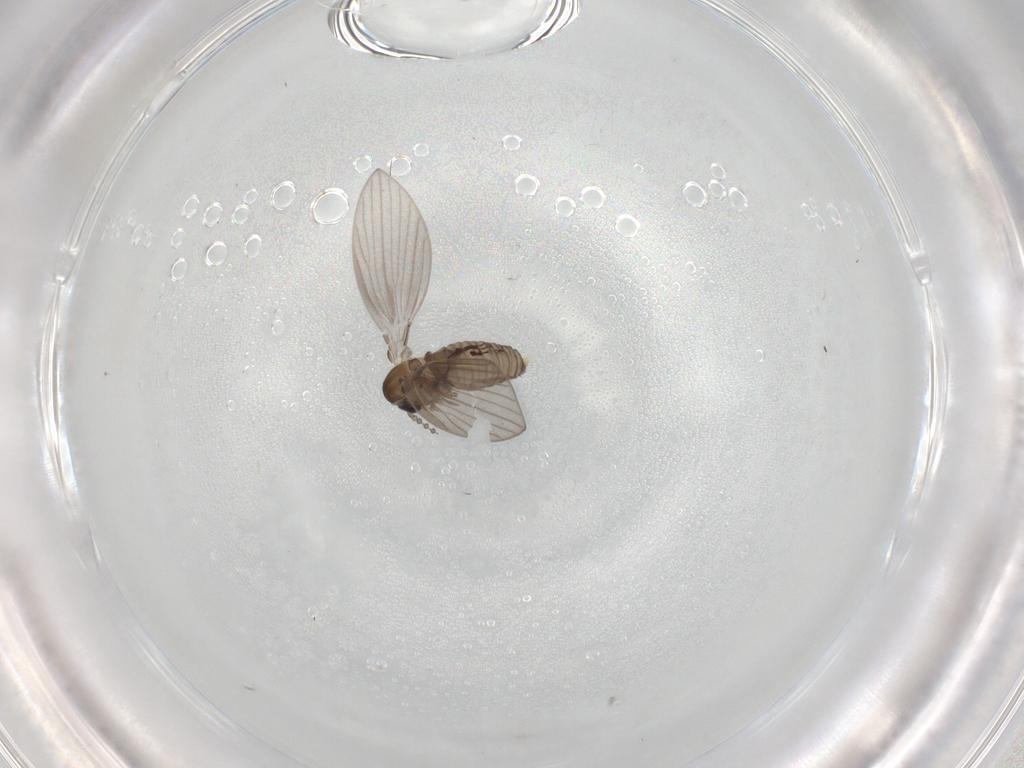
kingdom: Animalia
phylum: Arthropoda
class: Insecta
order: Diptera
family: Psychodidae
